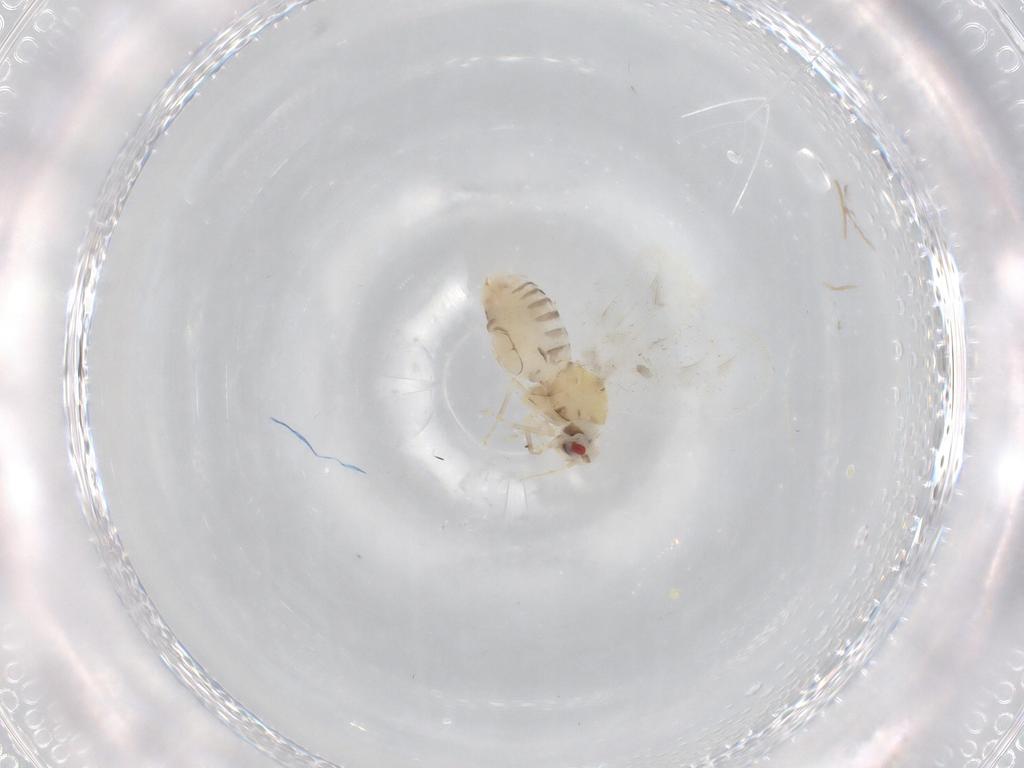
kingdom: Animalia
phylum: Arthropoda
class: Insecta
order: Hemiptera
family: Aleyrodidae
